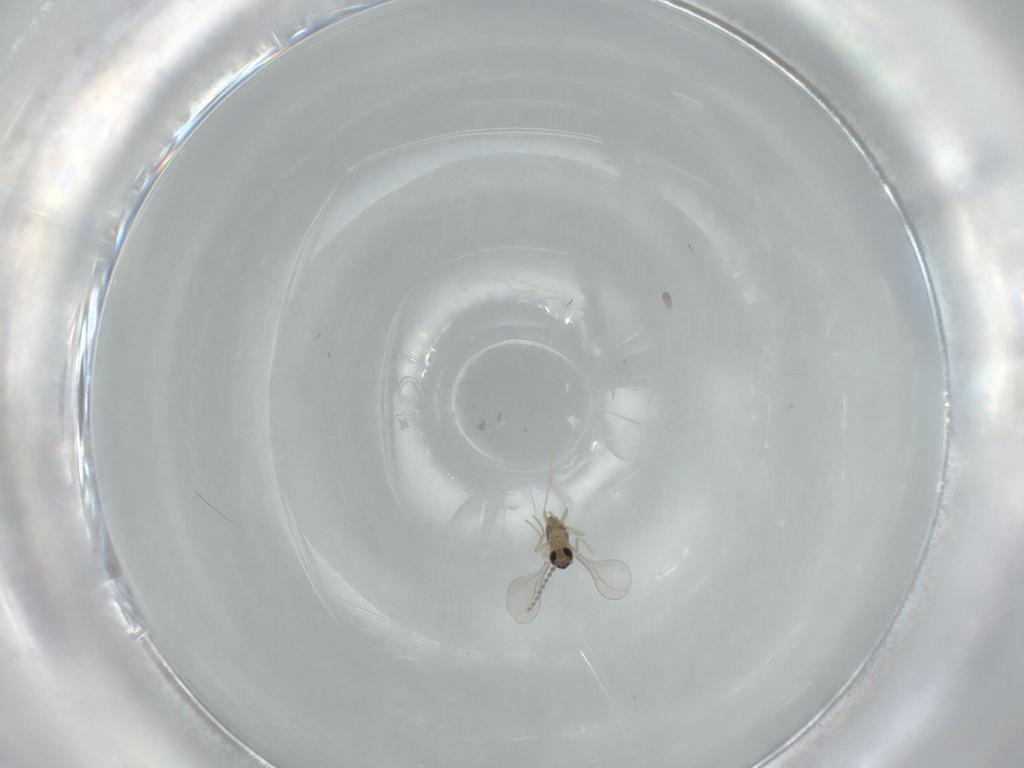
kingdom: Animalia
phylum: Arthropoda
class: Insecta
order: Diptera
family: Cecidomyiidae
